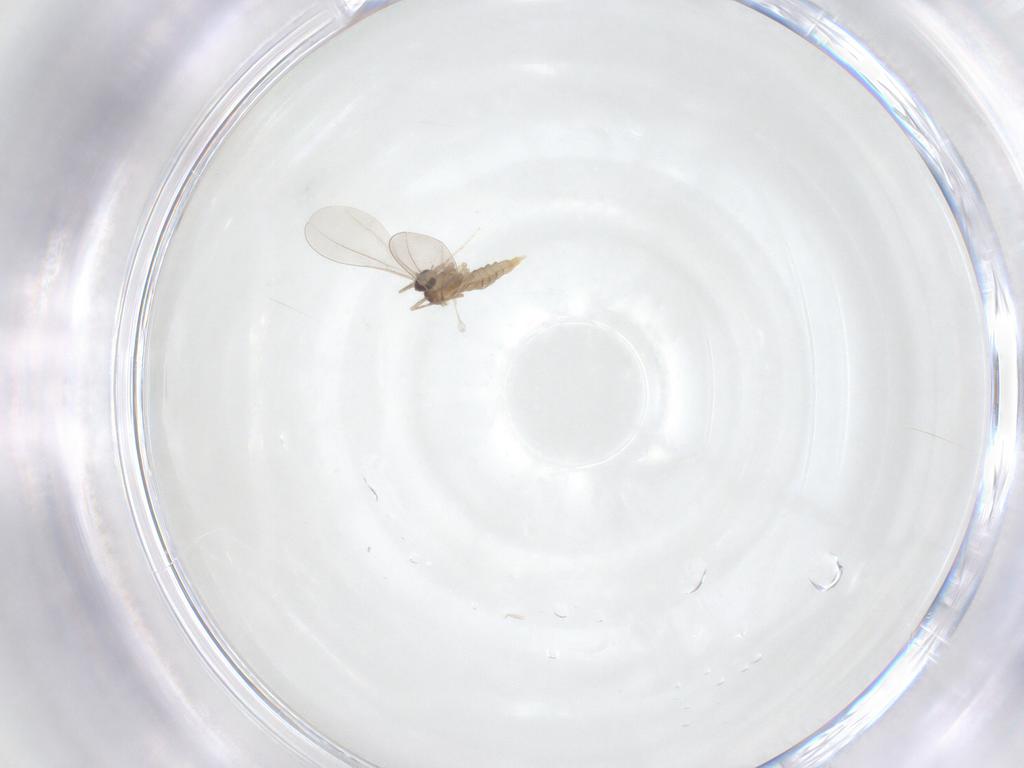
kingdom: Animalia
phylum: Arthropoda
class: Insecta
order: Diptera
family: Cecidomyiidae
